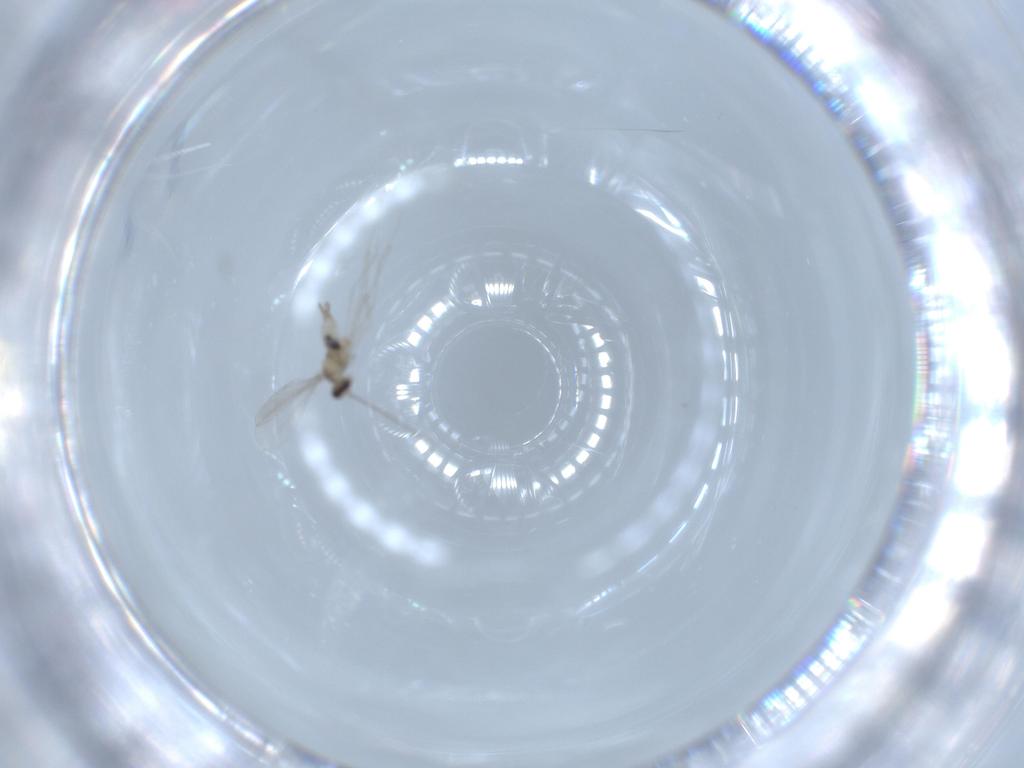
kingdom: Animalia
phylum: Arthropoda
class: Insecta
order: Diptera
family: Cecidomyiidae
